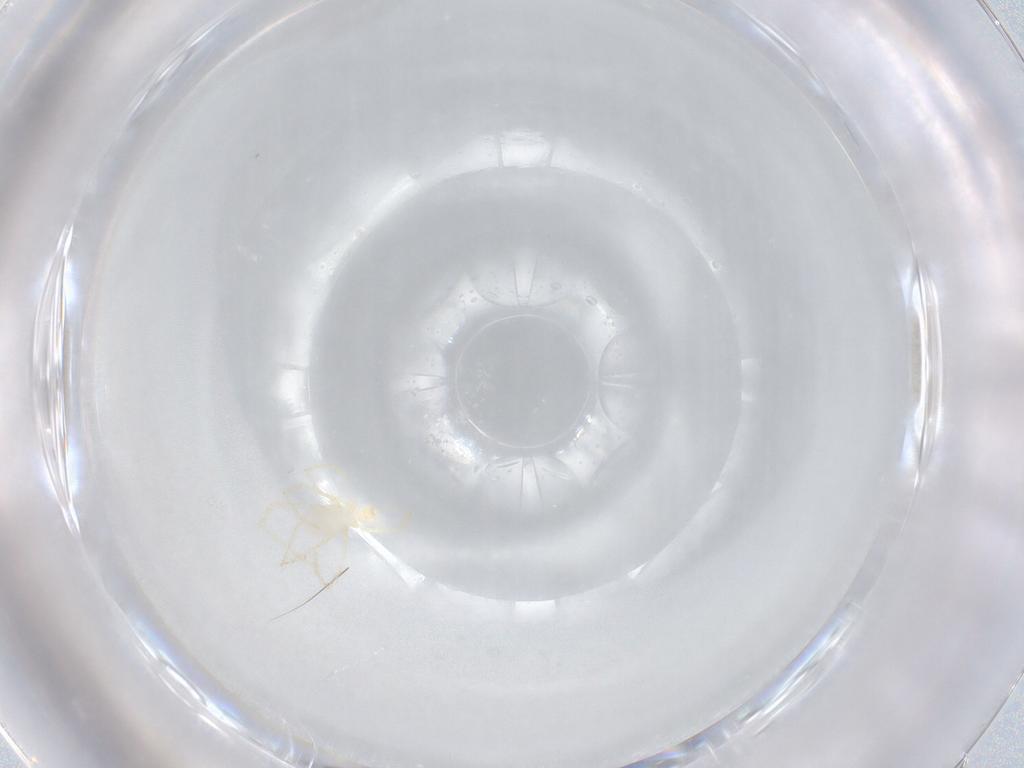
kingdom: Animalia
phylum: Arthropoda
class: Arachnida
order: Trombidiformes
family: Erythraeidae
